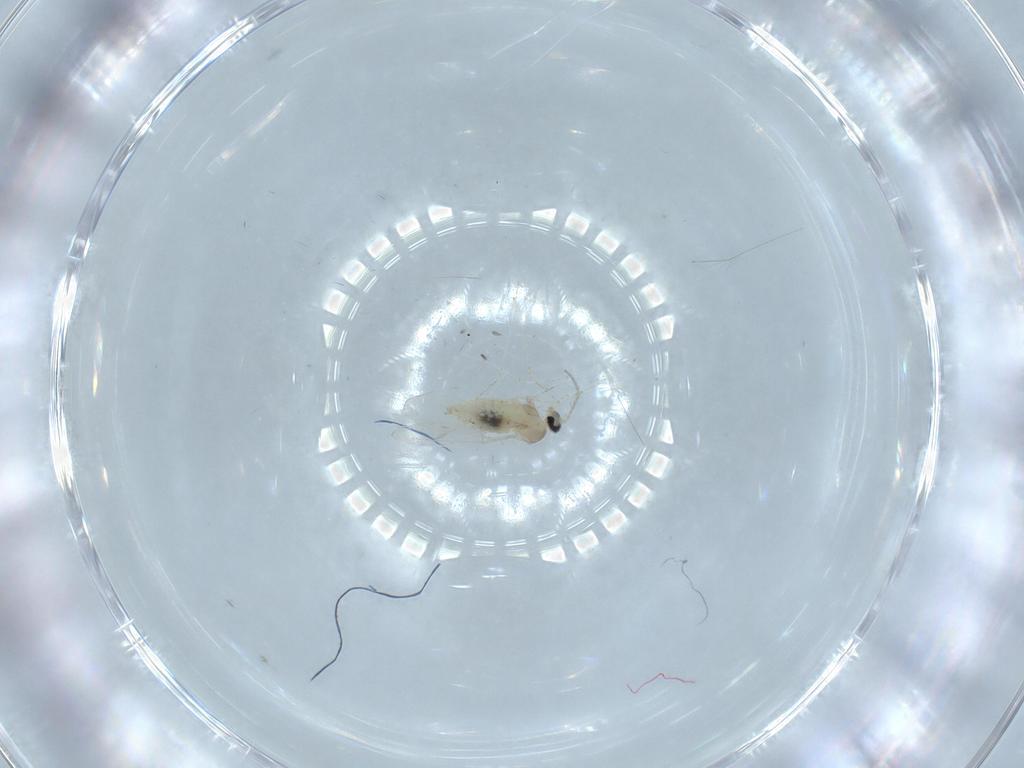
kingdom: Animalia
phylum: Arthropoda
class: Insecta
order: Diptera
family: Cecidomyiidae
